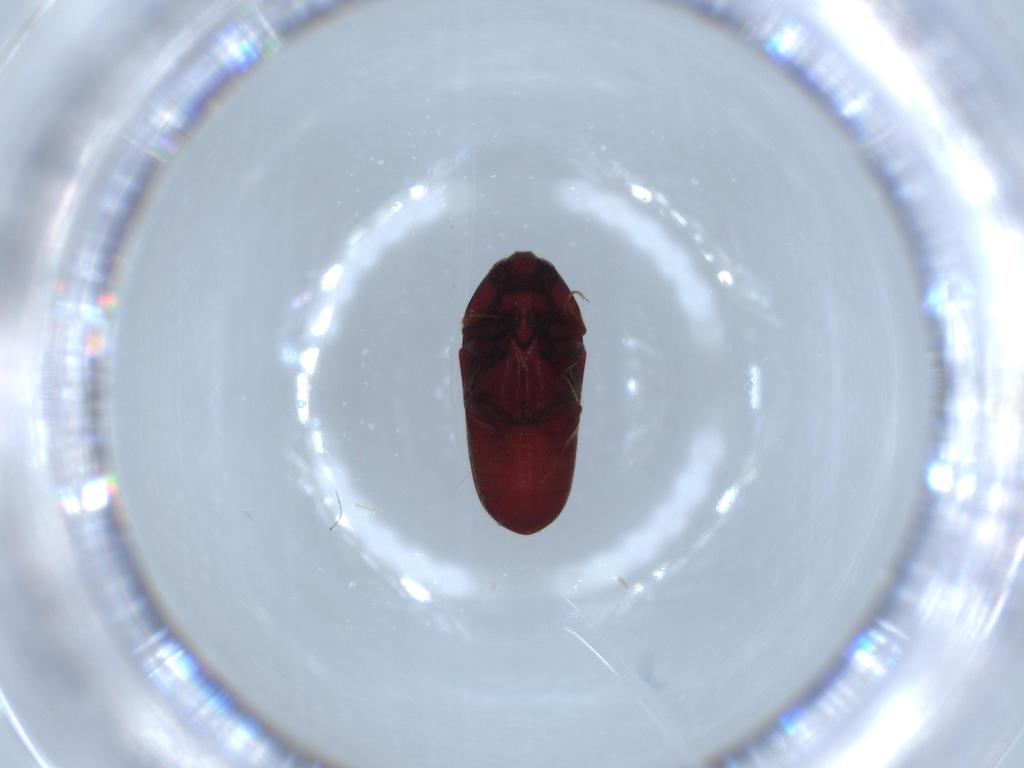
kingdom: Animalia
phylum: Arthropoda
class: Insecta
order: Coleoptera
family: Throscidae
